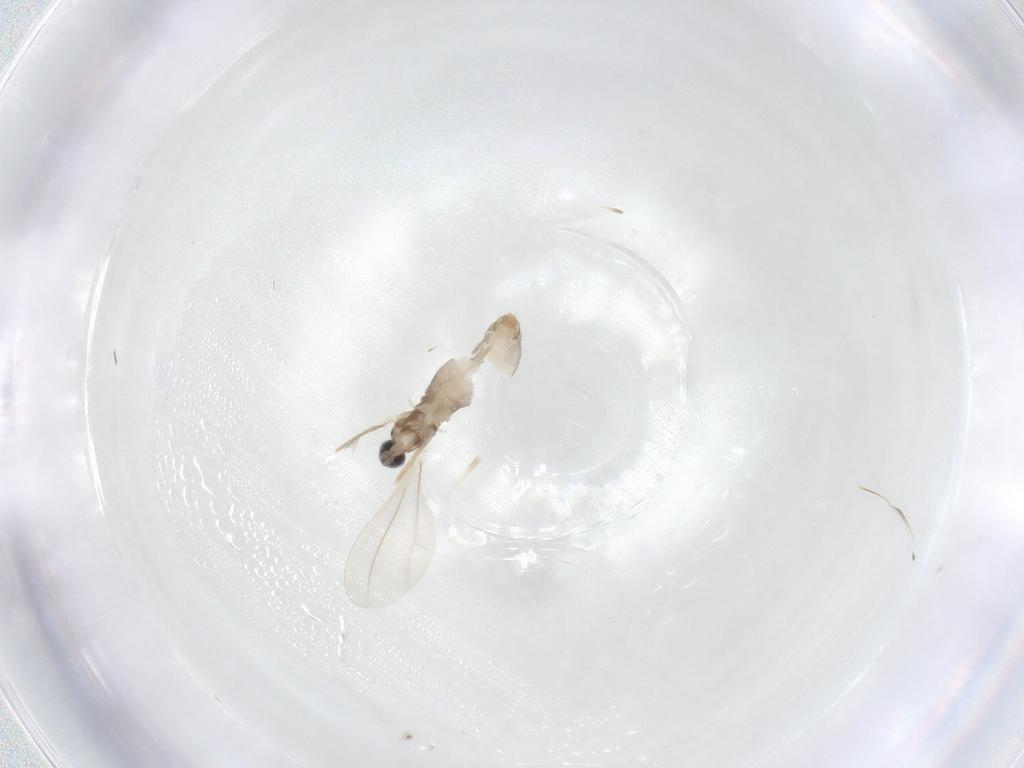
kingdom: Animalia
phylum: Arthropoda
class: Insecta
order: Diptera
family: Cecidomyiidae
